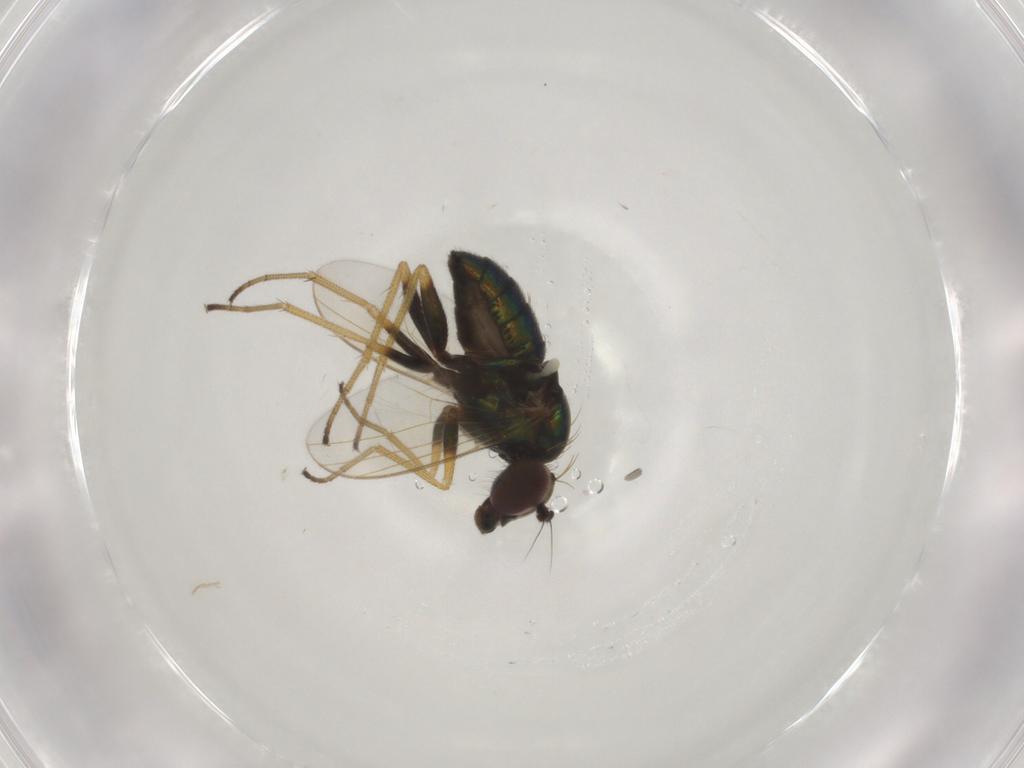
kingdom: Animalia
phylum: Arthropoda
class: Insecta
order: Diptera
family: Dolichopodidae
